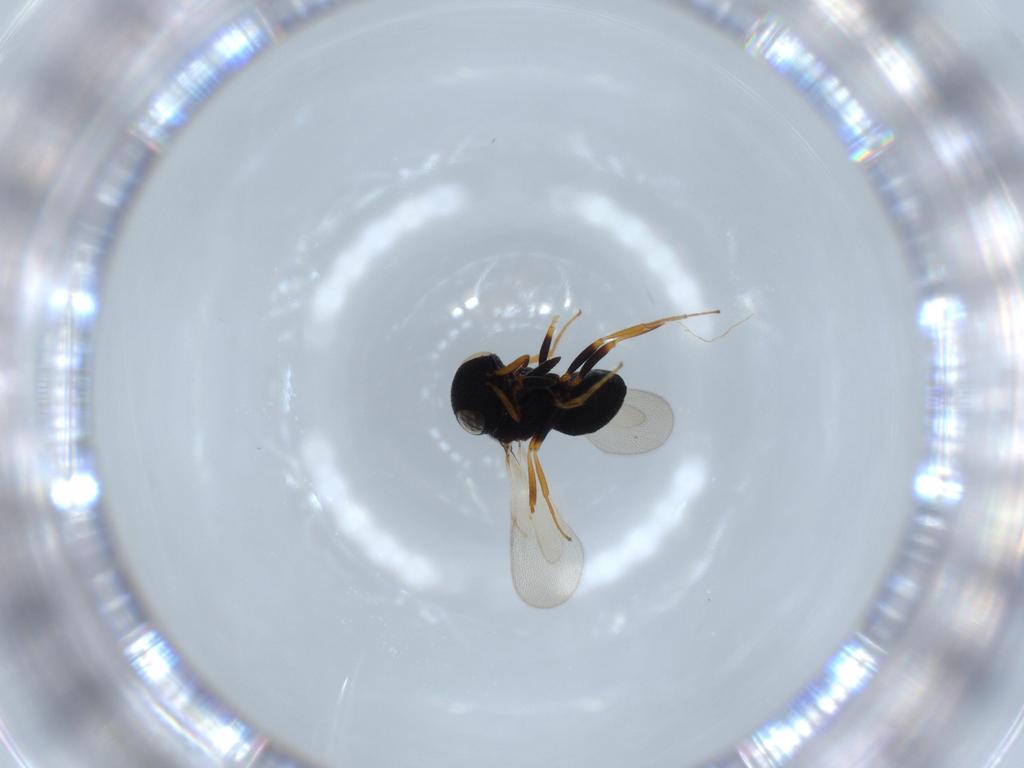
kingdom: Animalia
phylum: Arthropoda
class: Insecta
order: Hymenoptera
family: Scelionidae
